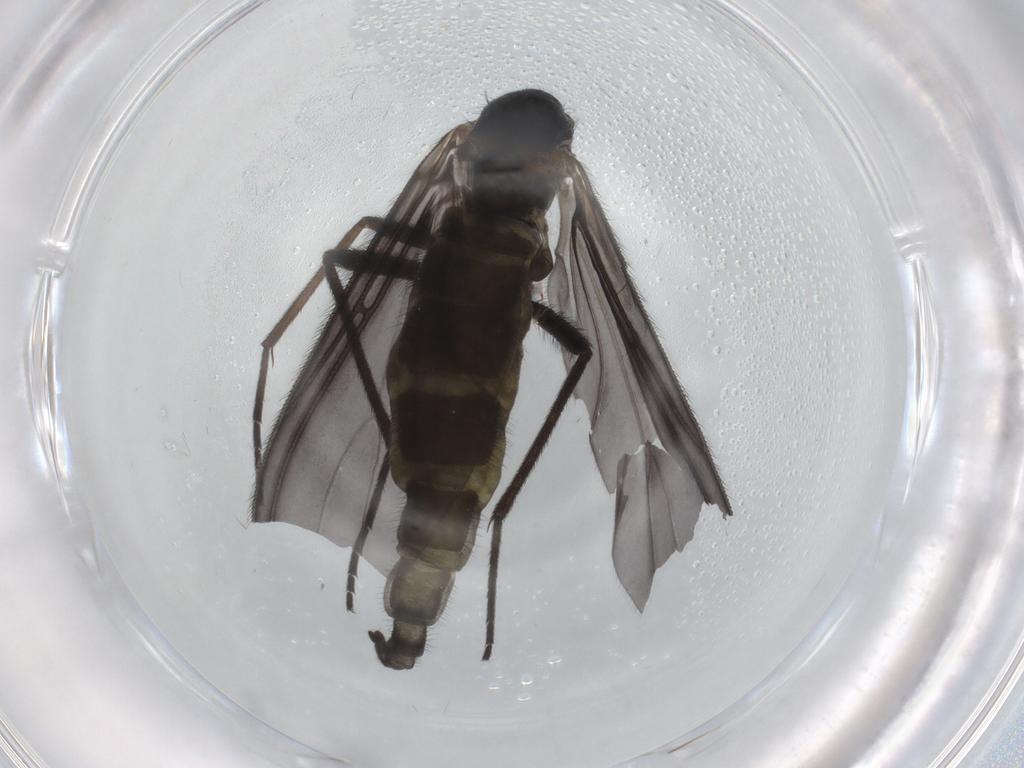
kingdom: Animalia
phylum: Arthropoda
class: Insecta
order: Diptera
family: Sciaridae
